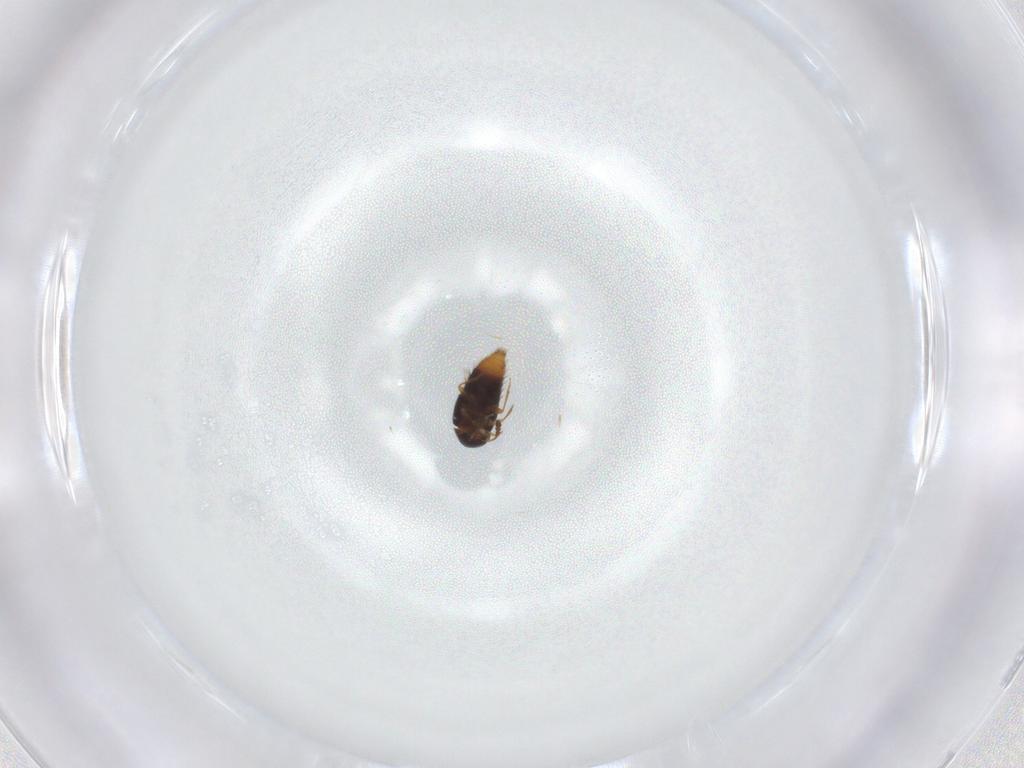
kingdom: Animalia
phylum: Arthropoda
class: Insecta
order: Coleoptera
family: Staphylinidae
